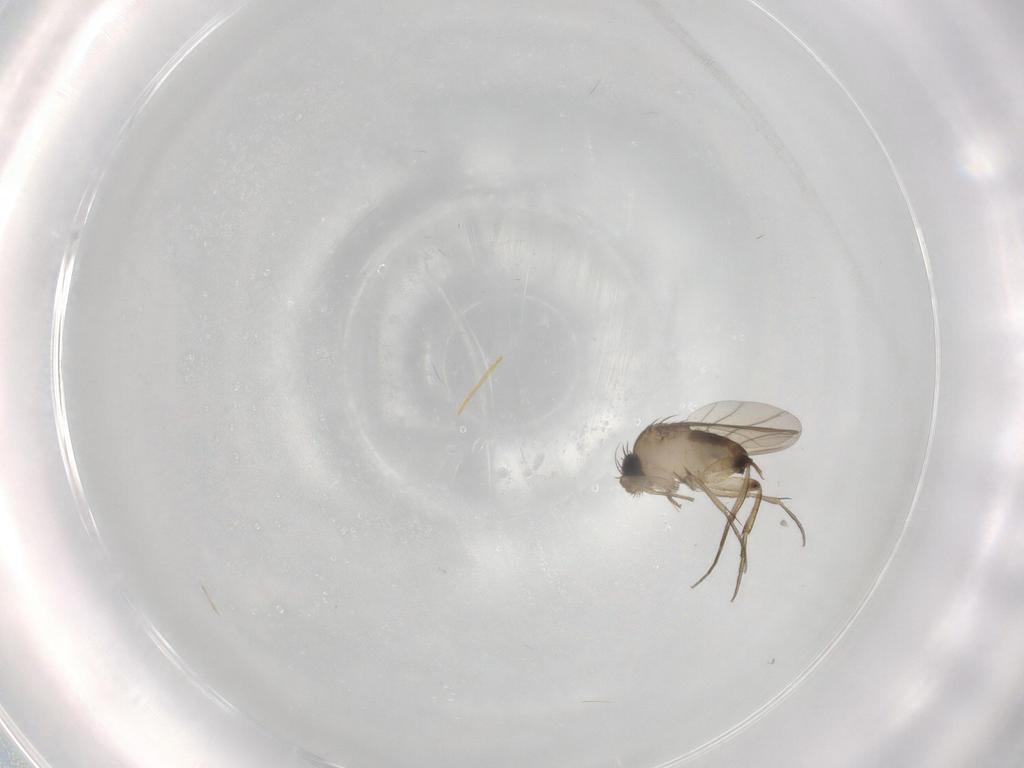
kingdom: Animalia
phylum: Arthropoda
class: Insecta
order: Diptera
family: Phoridae
